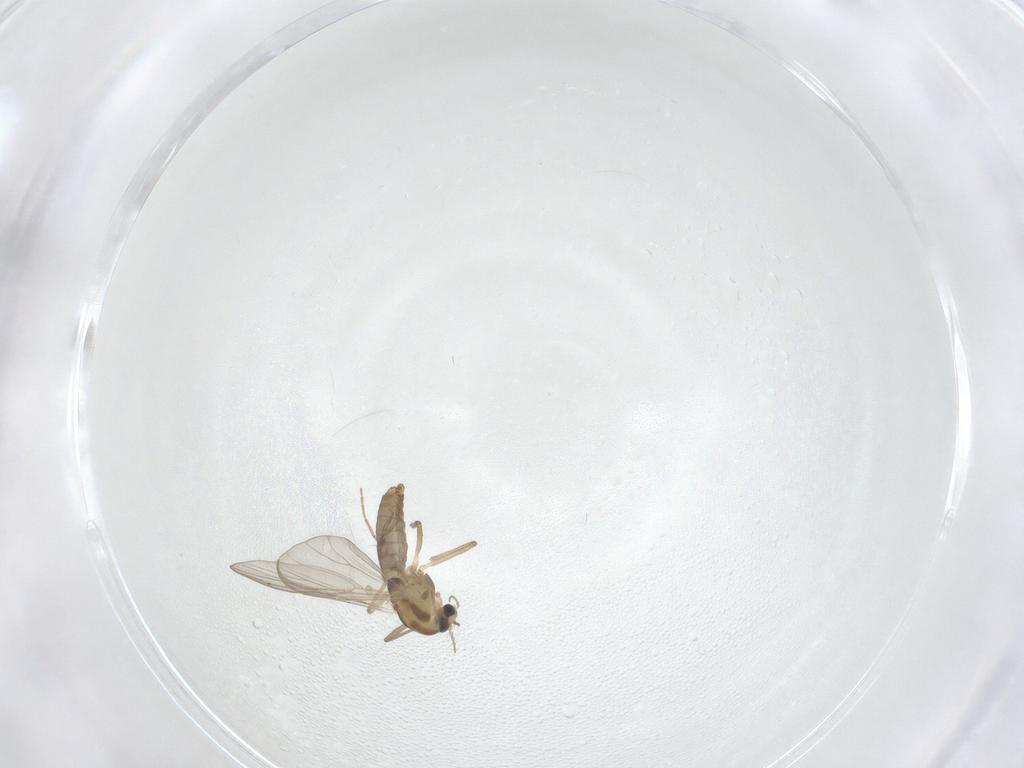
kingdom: Animalia
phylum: Arthropoda
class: Insecta
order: Diptera
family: Chironomidae
